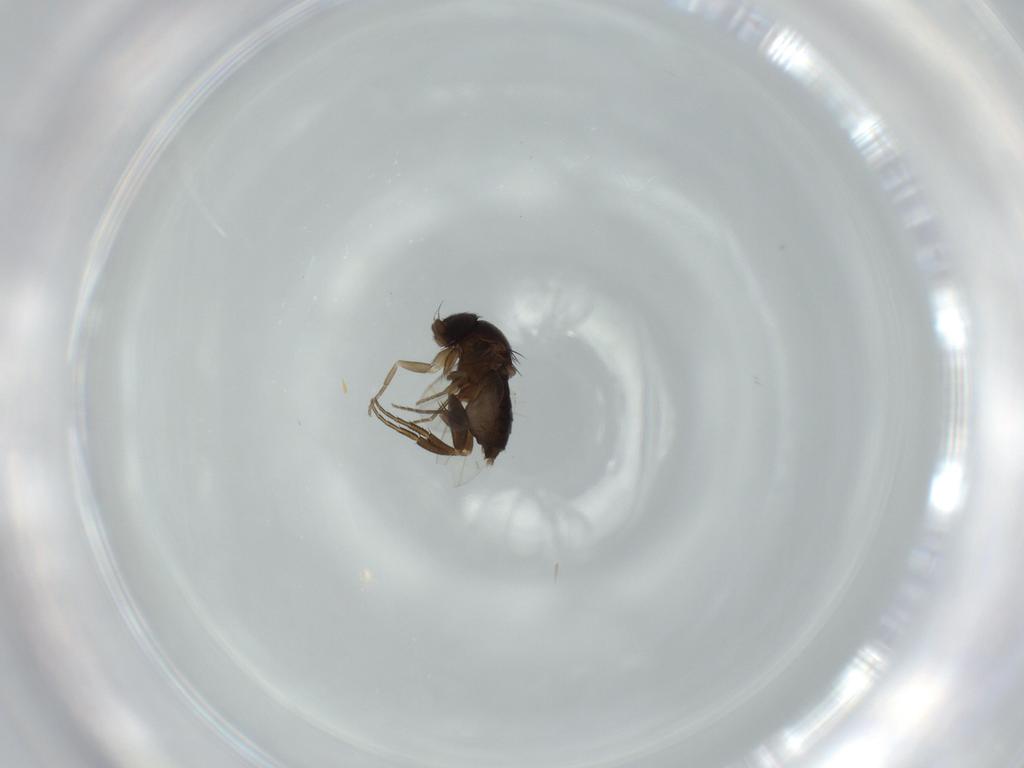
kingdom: Animalia
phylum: Arthropoda
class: Insecta
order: Diptera
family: Phoridae
